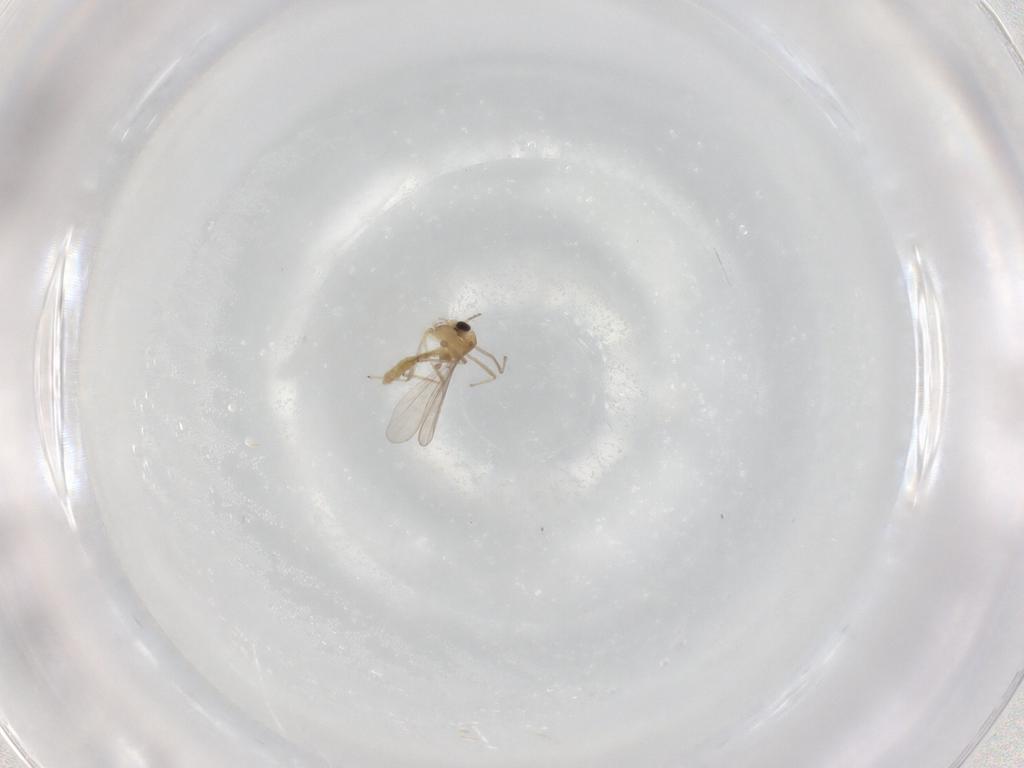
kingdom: Animalia
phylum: Arthropoda
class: Insecta
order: Diptera
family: Chironomidae
